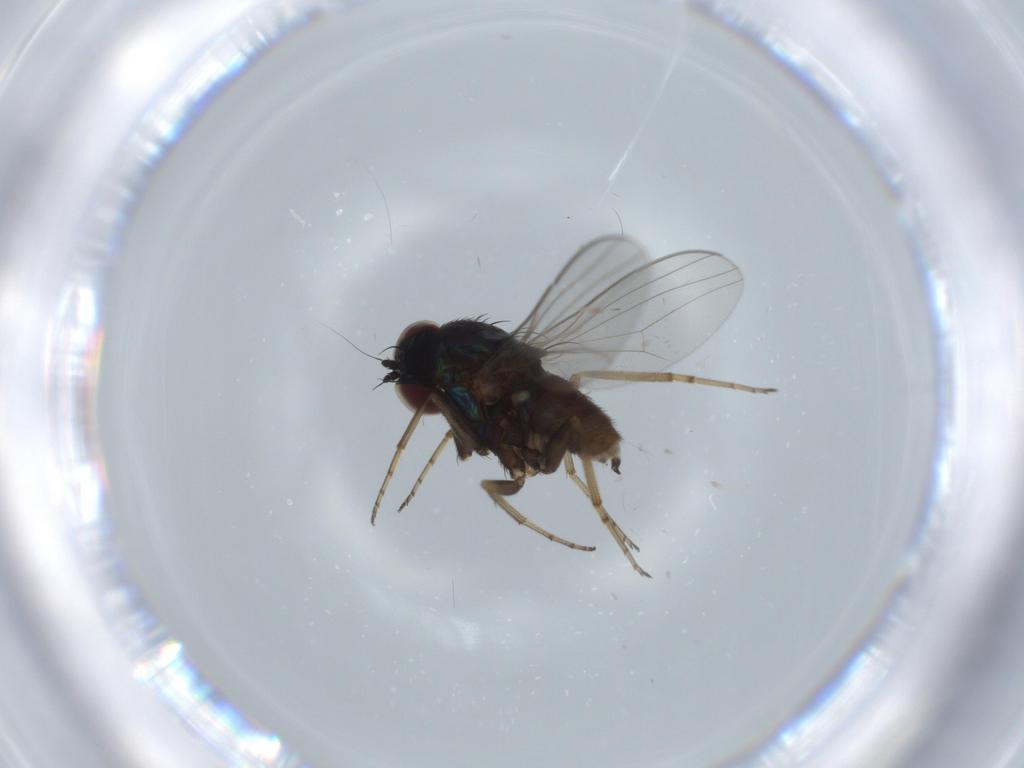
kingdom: Animalia
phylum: Arthropoda
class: Insecta
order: Diptera
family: Dolichopodidae
